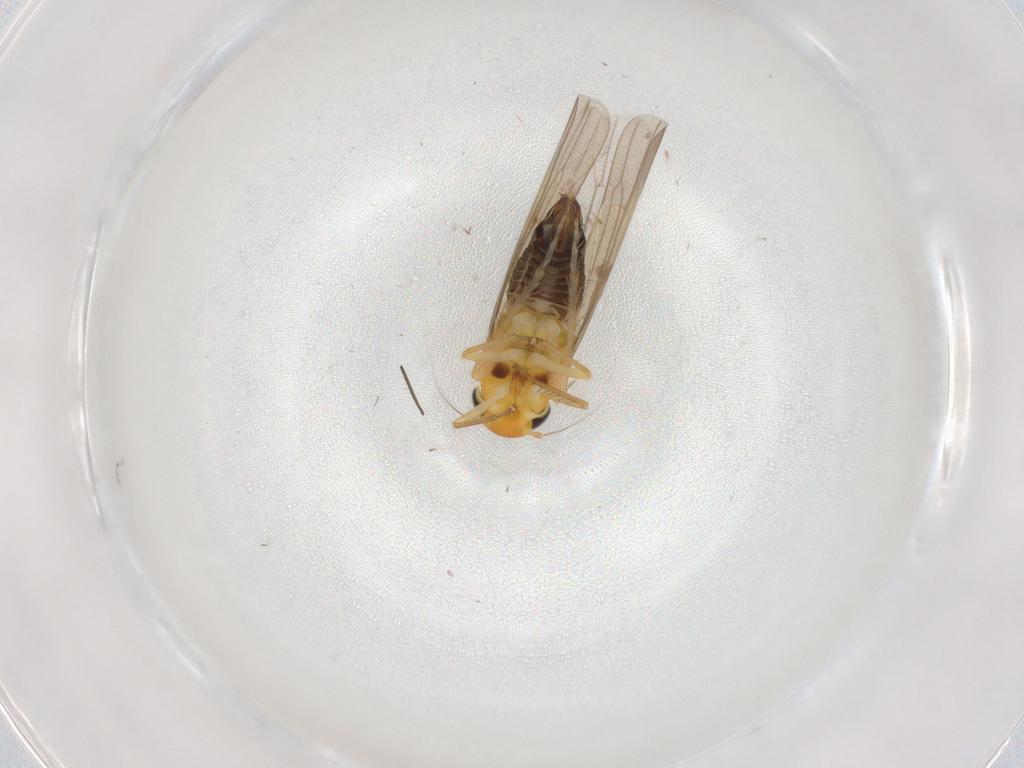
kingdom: Animalia
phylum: Arthropoda
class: Insecta
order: Hemiptera
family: Cicadellidae
